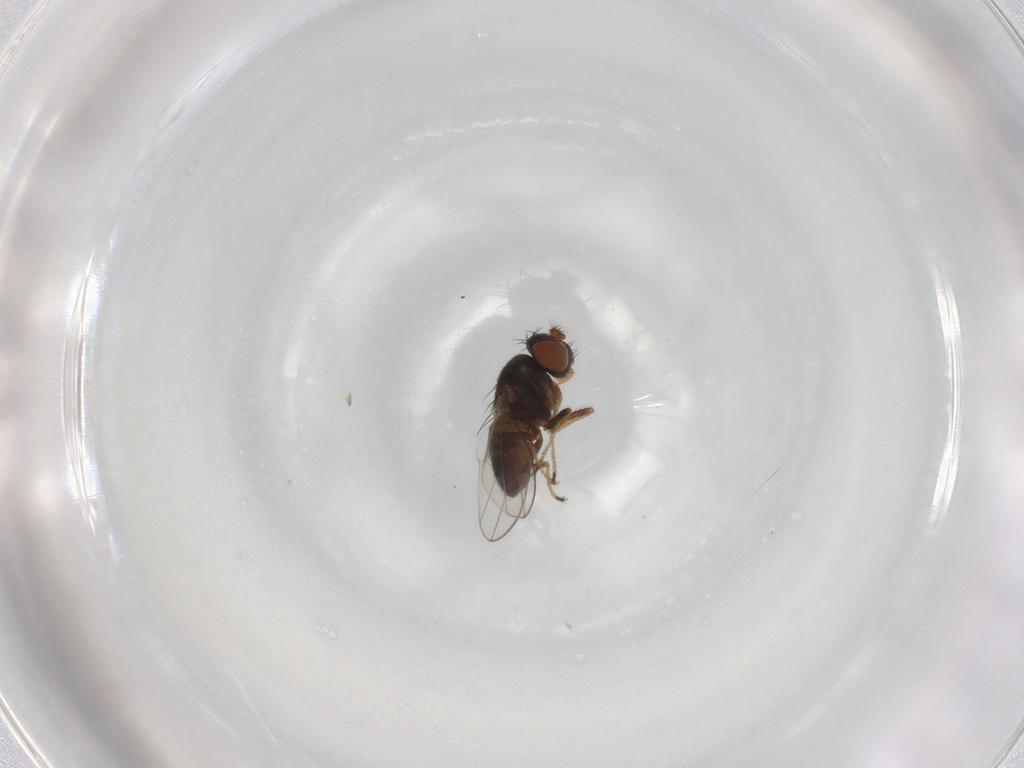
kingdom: Animalia
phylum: Arthropoda
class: Insecta
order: Diptera
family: Ephydridae
